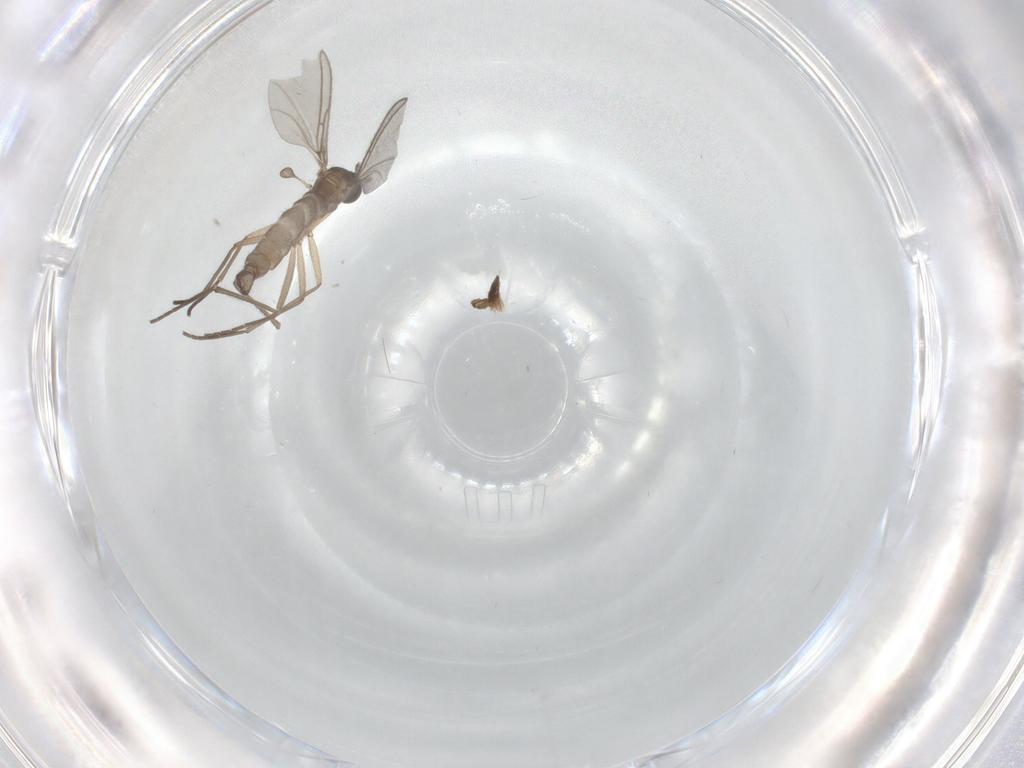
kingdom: Animalia
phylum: Arthropoda
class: Insecta
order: Diptera
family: Sciaridae
